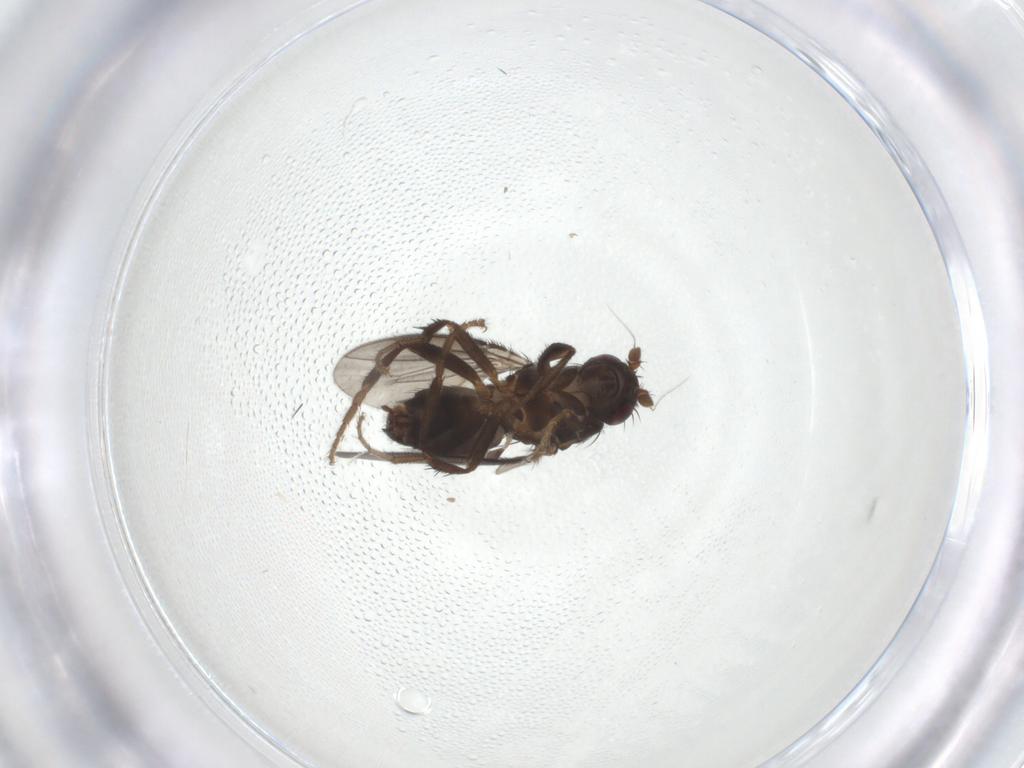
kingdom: Animalia
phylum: Arthropoda
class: Insecta
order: Diptera
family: Sphaeroceridae
